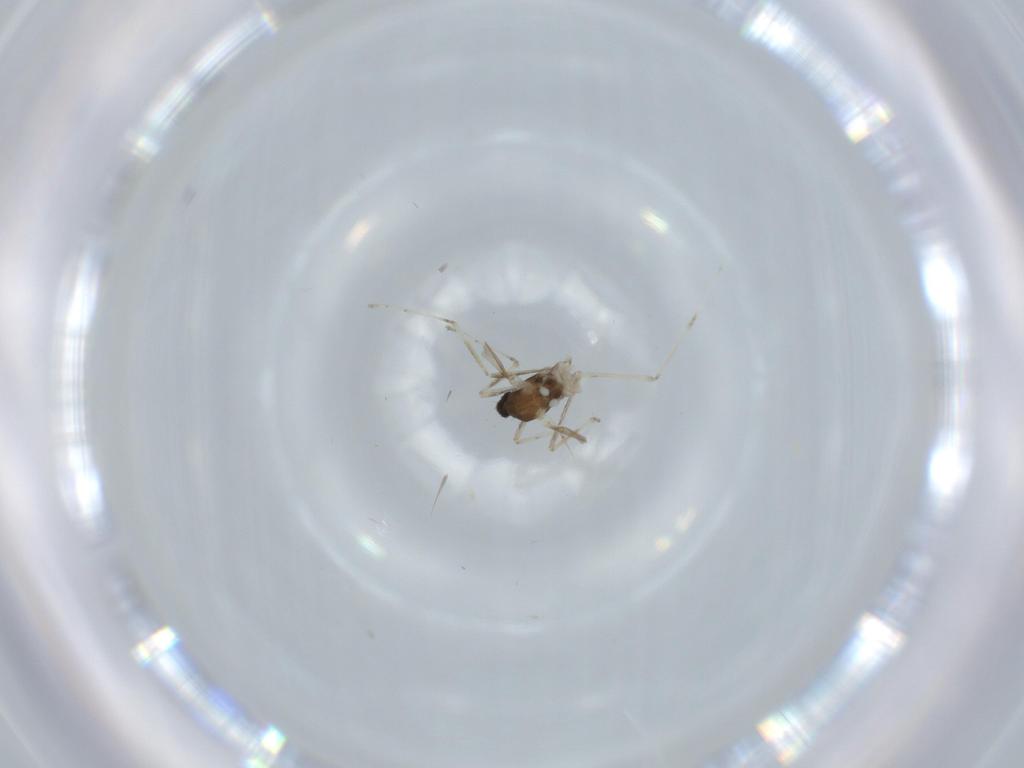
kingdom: Animalia
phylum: Arthropoda
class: Insecta
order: Diptera
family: Cecidomyiidae
